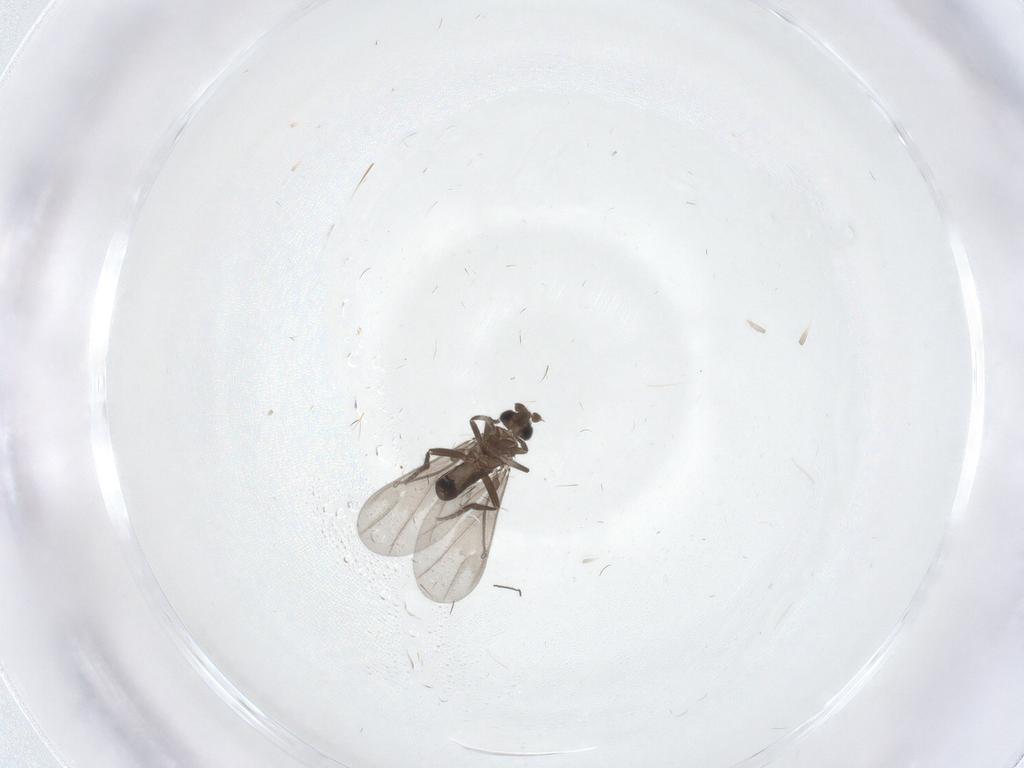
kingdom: Animalia
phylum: Arthropoda
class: Insecta
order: Diptera
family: Phoridae
